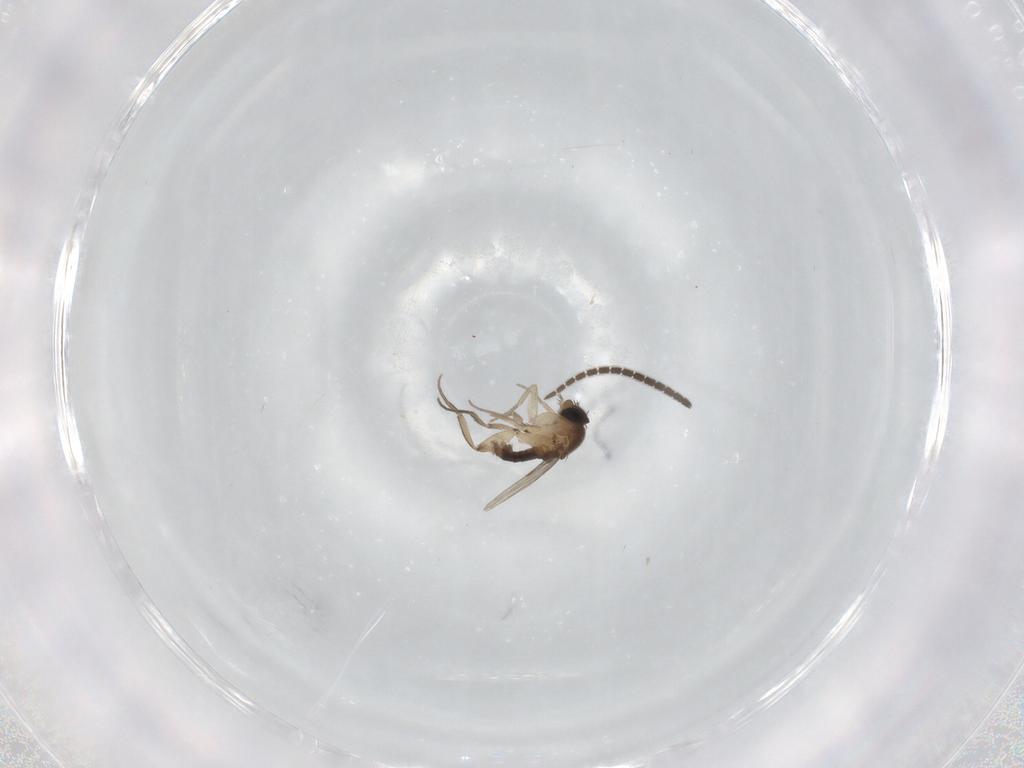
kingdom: Animalia
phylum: Arthropoda
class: Insecta
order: Diptera
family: Phoridae
